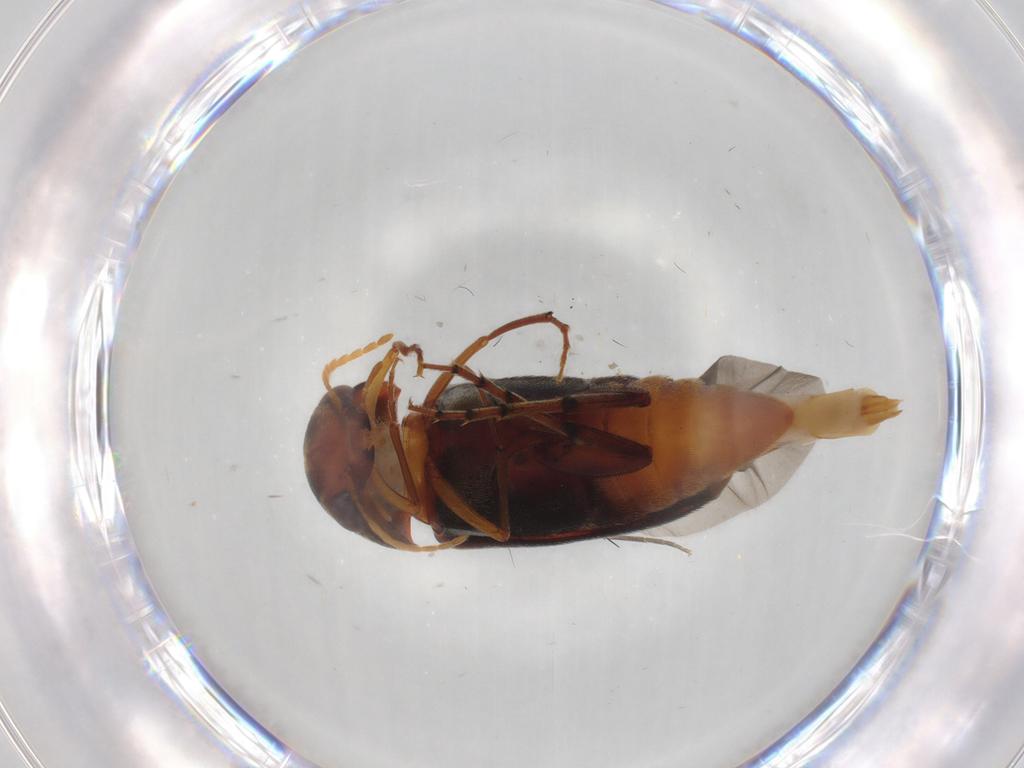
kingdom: Animalia
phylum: Arthropoda
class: Insecta
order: Coleoptera
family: Mordellidae
